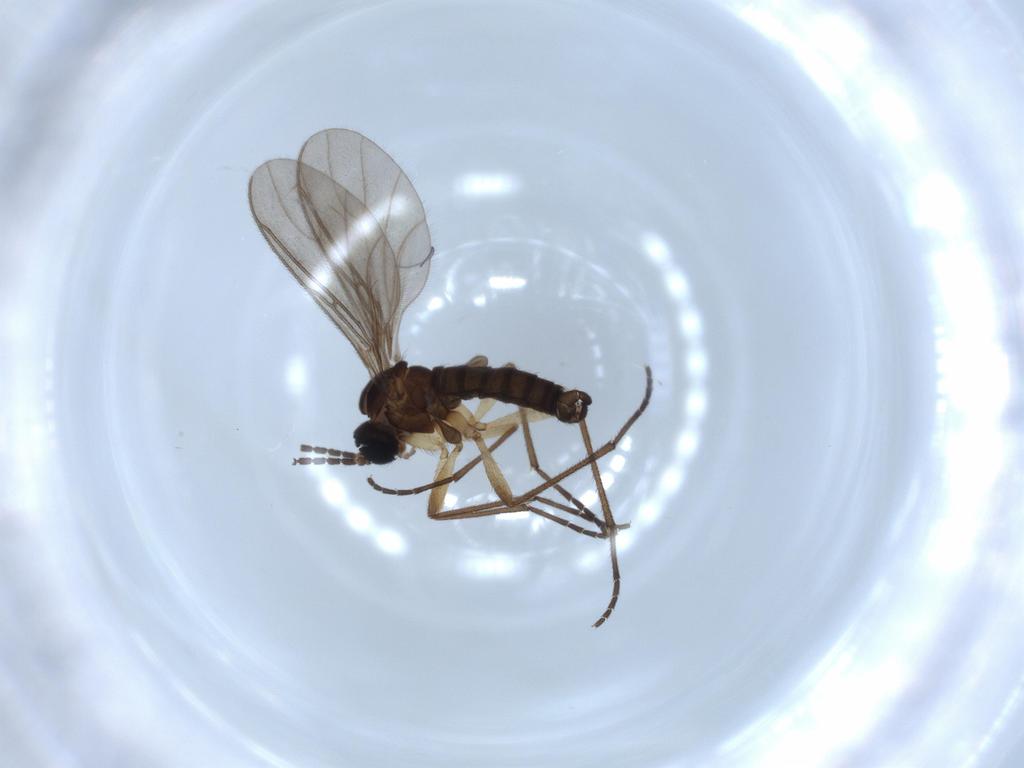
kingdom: Animalia
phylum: Arthropoda
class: Insecta
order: Diptera
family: Sciaridae
